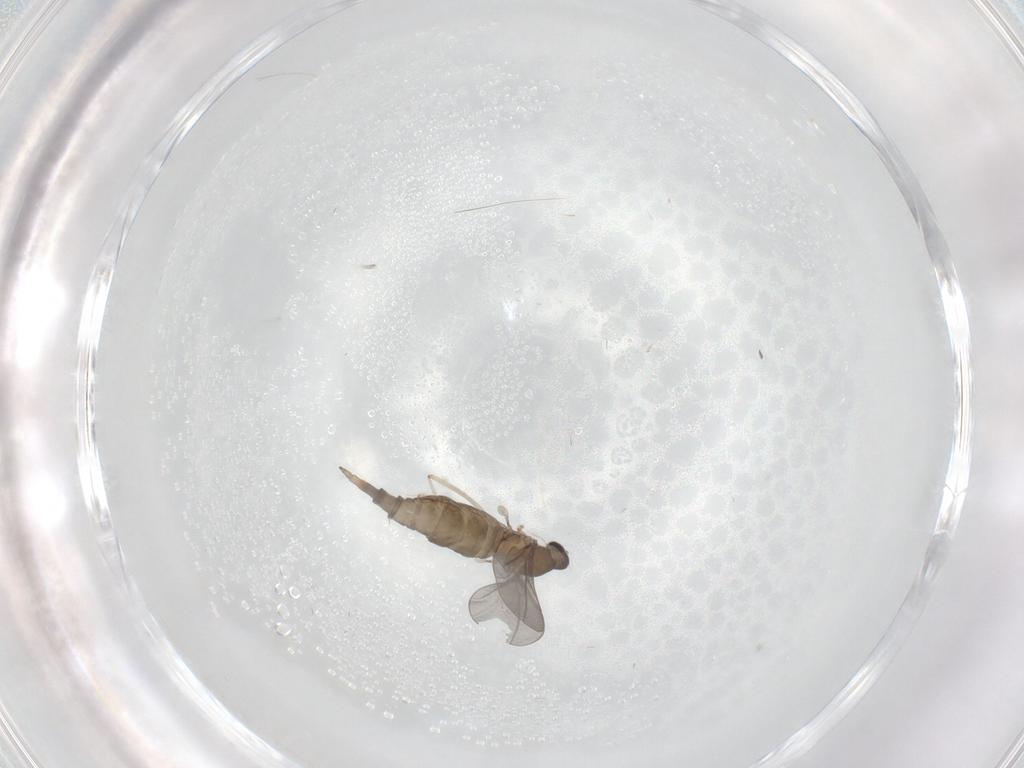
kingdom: Animalia
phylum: Arthropoda
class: Insecta
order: Diptera
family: Cecidomyiidae
